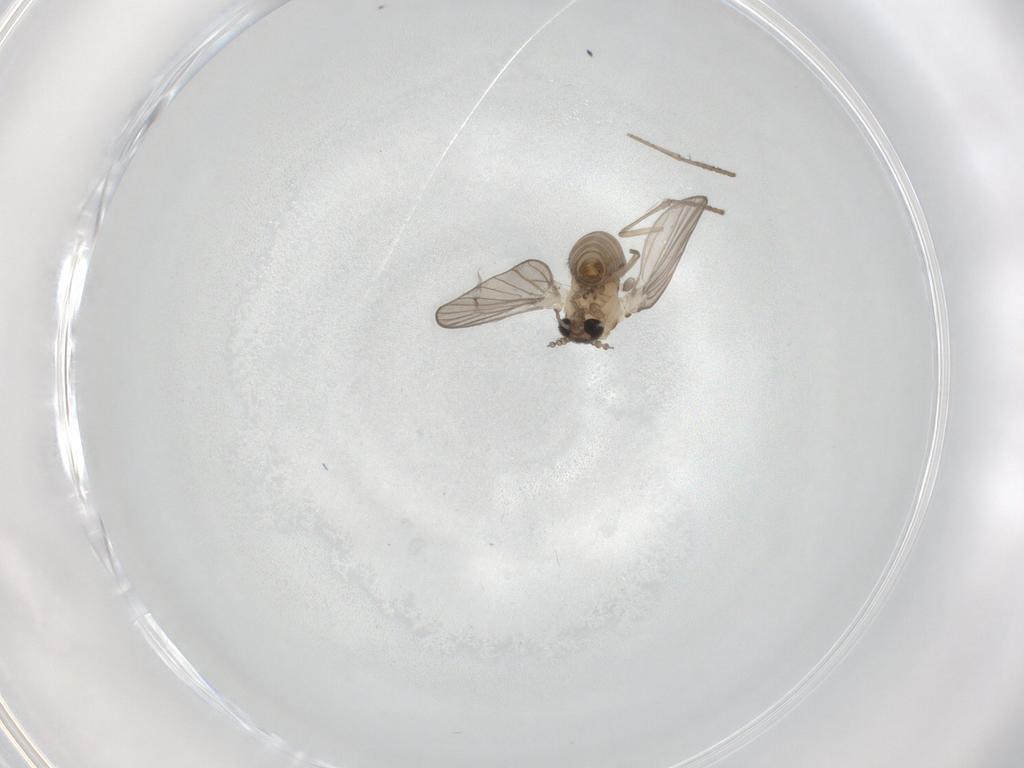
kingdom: Animalia
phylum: Arthropoda
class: Insecta
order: Diptera
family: Psychodidae
